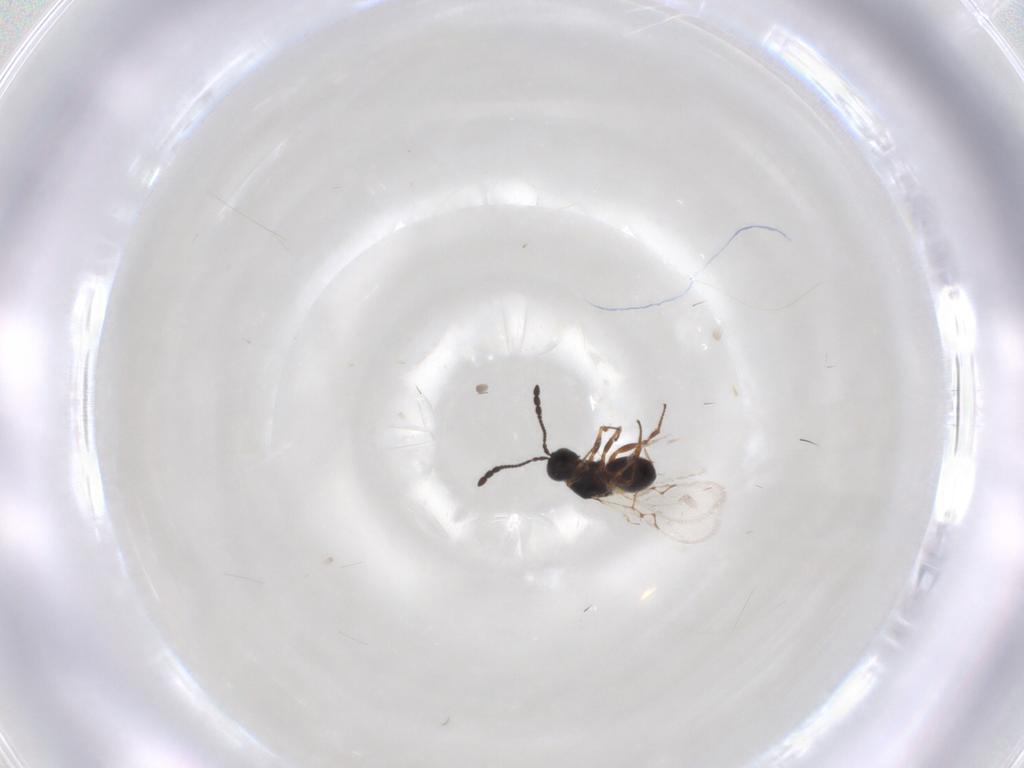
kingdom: Animalia
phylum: Arthropoda
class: Insecta
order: Hymenoptera
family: Figitidae
